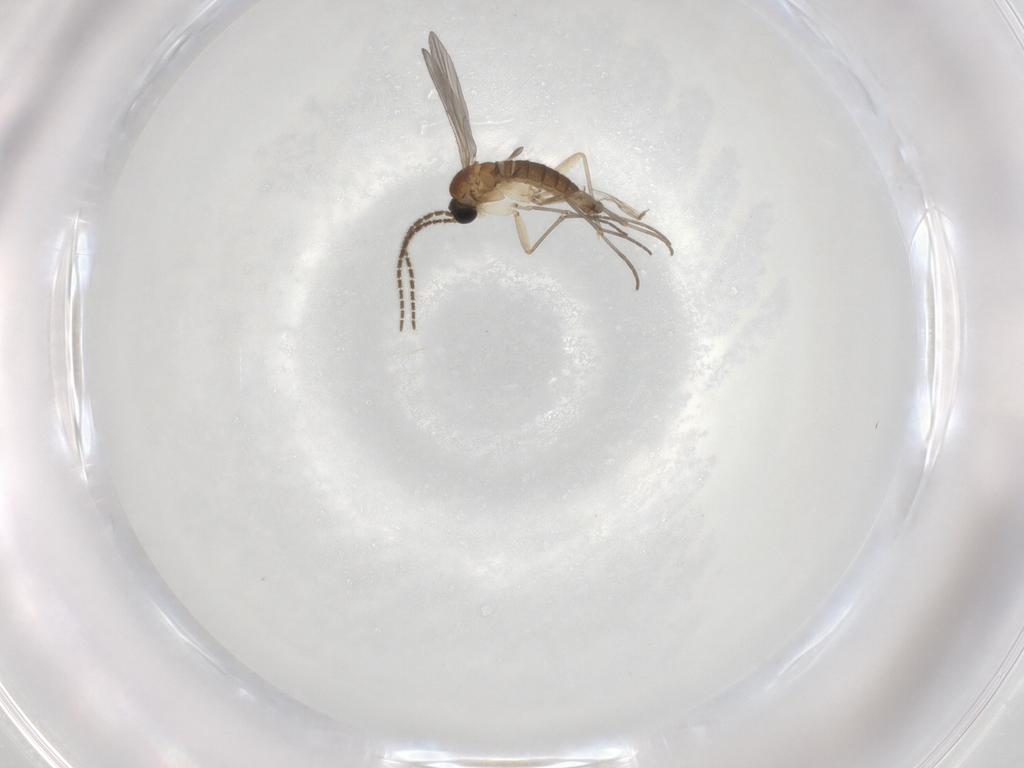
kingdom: Animalia
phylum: Arthropoda
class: Insecta
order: Diptera
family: Sciaridae
